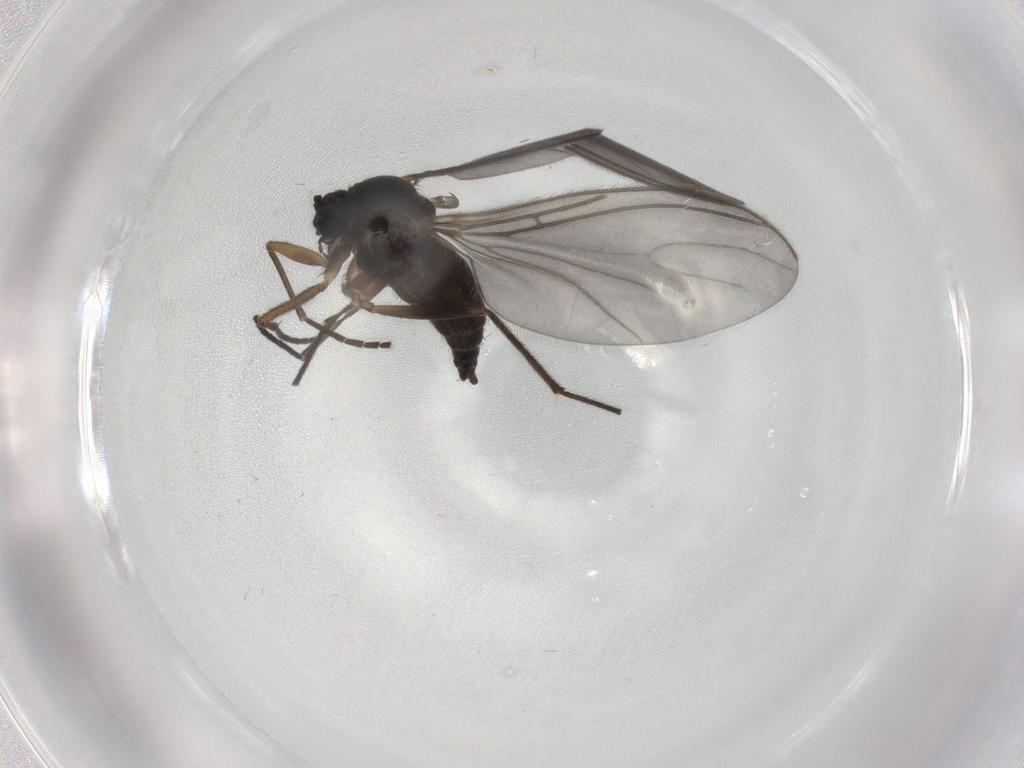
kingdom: Animalia
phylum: Arthropoda
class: Insecta
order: Diptera
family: Sciaridae
